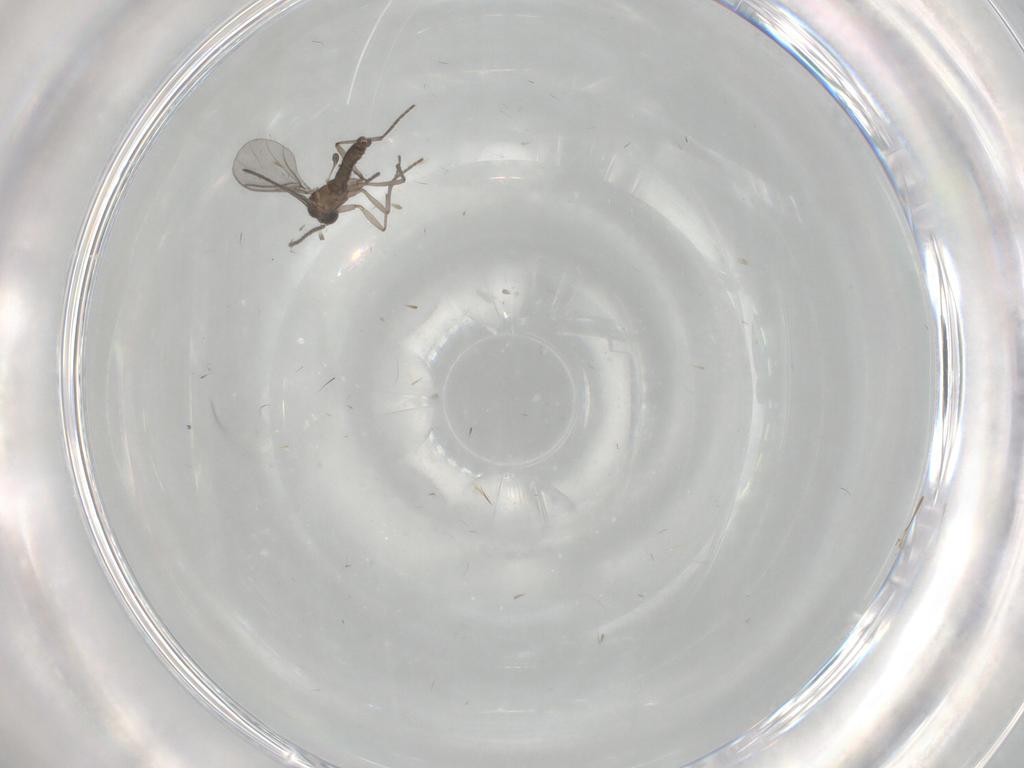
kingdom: Animalia
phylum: Arthropoda
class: Insecta
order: Diptera
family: Sciaridae
